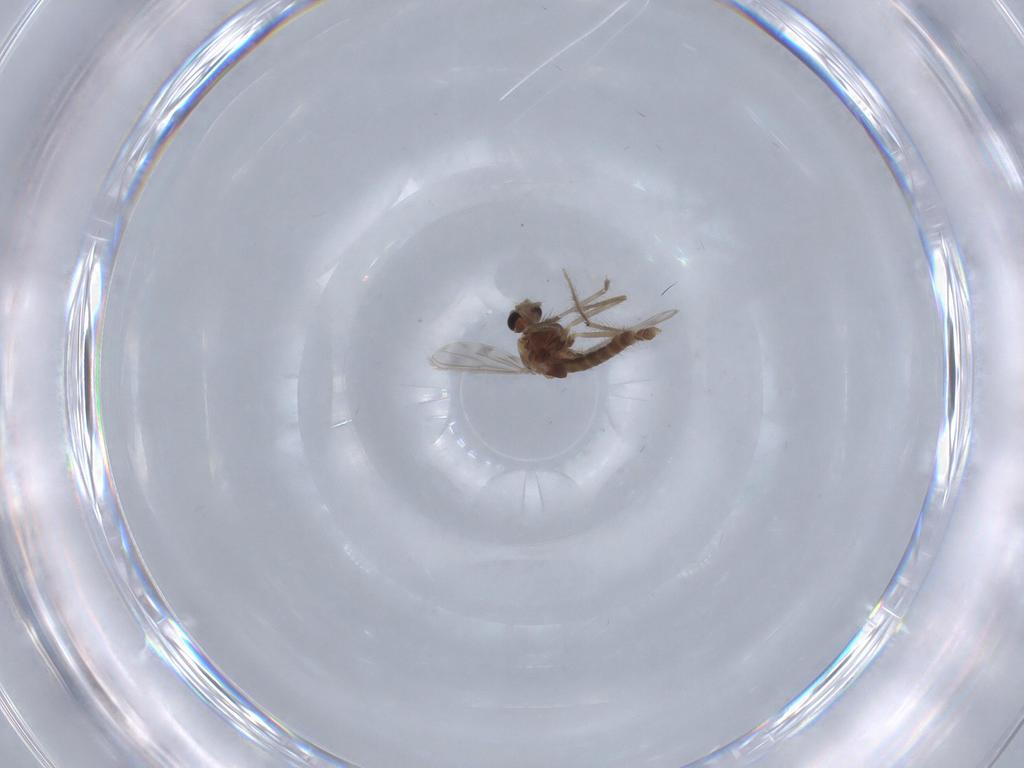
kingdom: Animalia
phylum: Arthropoda
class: Insecta
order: Diptera
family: Chironomidae
